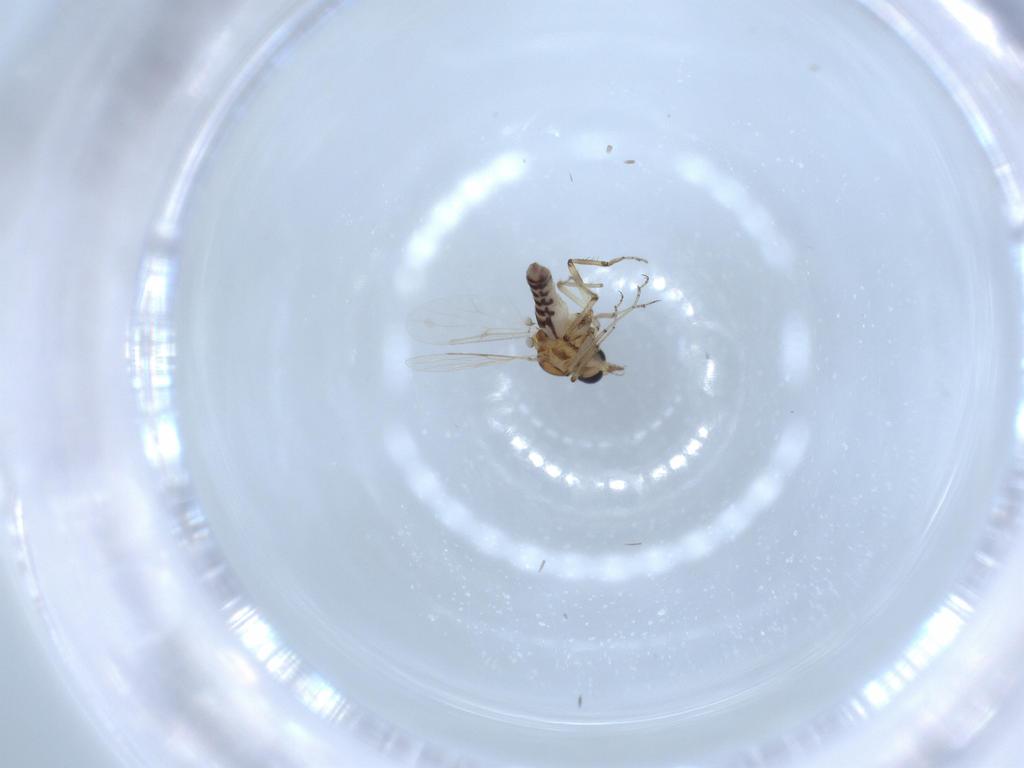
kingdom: Animalia
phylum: Arthropoda
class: Insecta
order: Diptera
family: Ceratopogonidae
